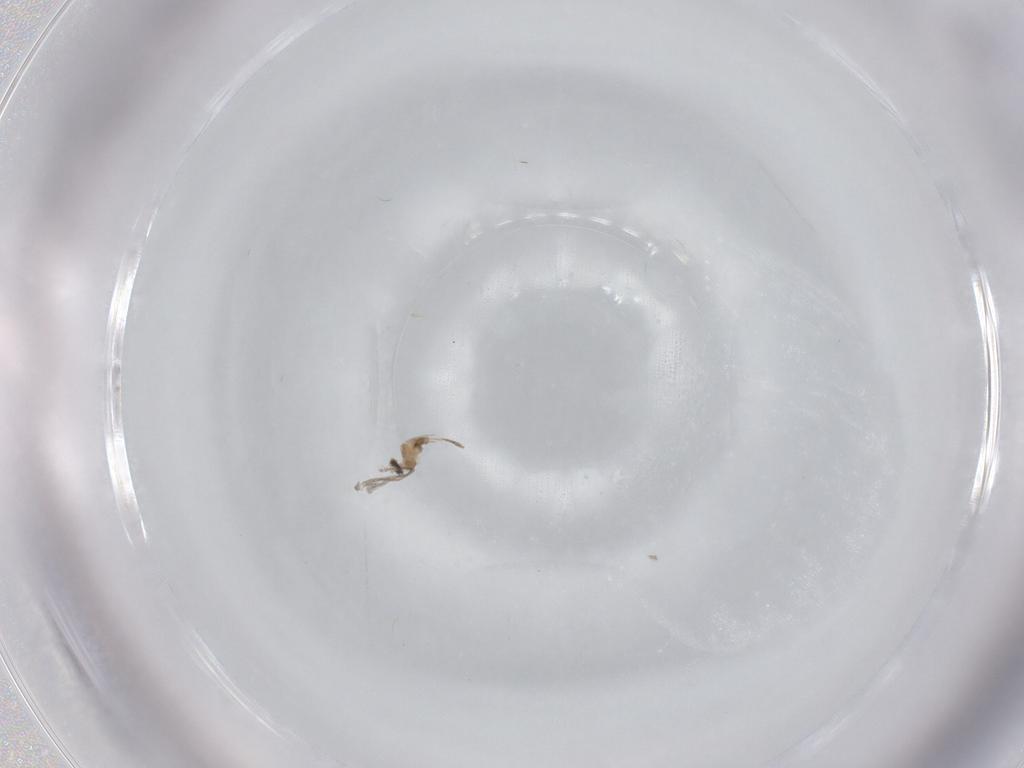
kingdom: Animalia
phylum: Arthropoda
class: Insecta
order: Diptera
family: Cecidomyiidae
